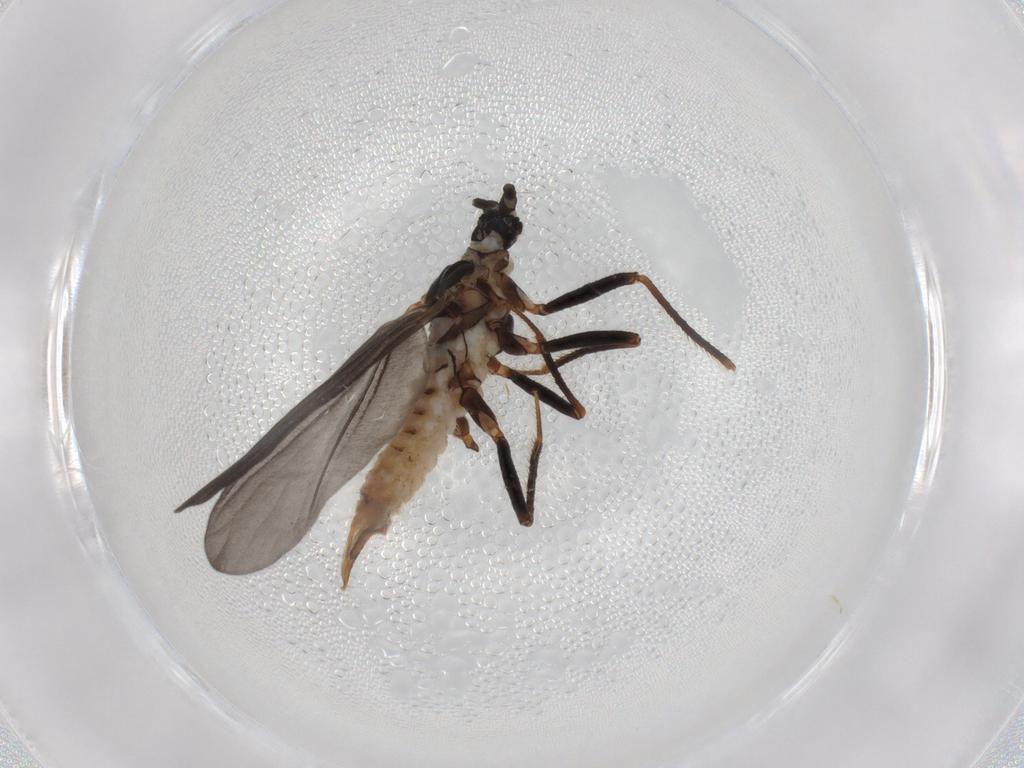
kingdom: Animalia
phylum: Arthropoda
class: Insecta
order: Hemiptera
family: Putoidae
